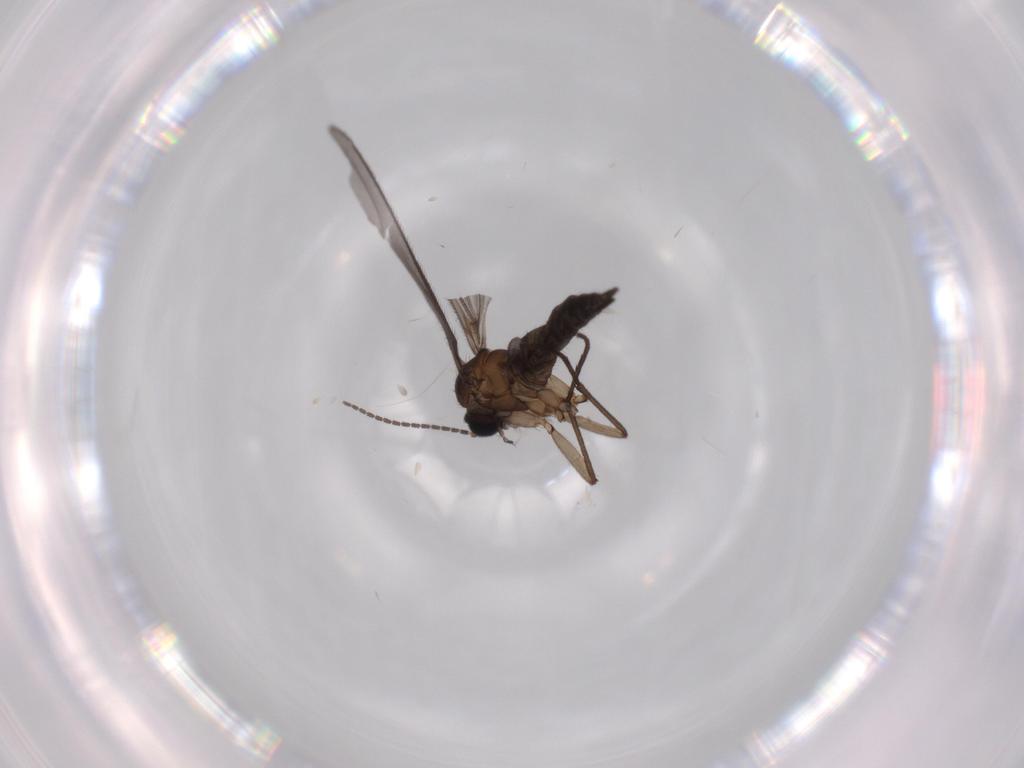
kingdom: Animalia
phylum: Arthropoda
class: Insecta
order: Diptera
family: Sciaridae
